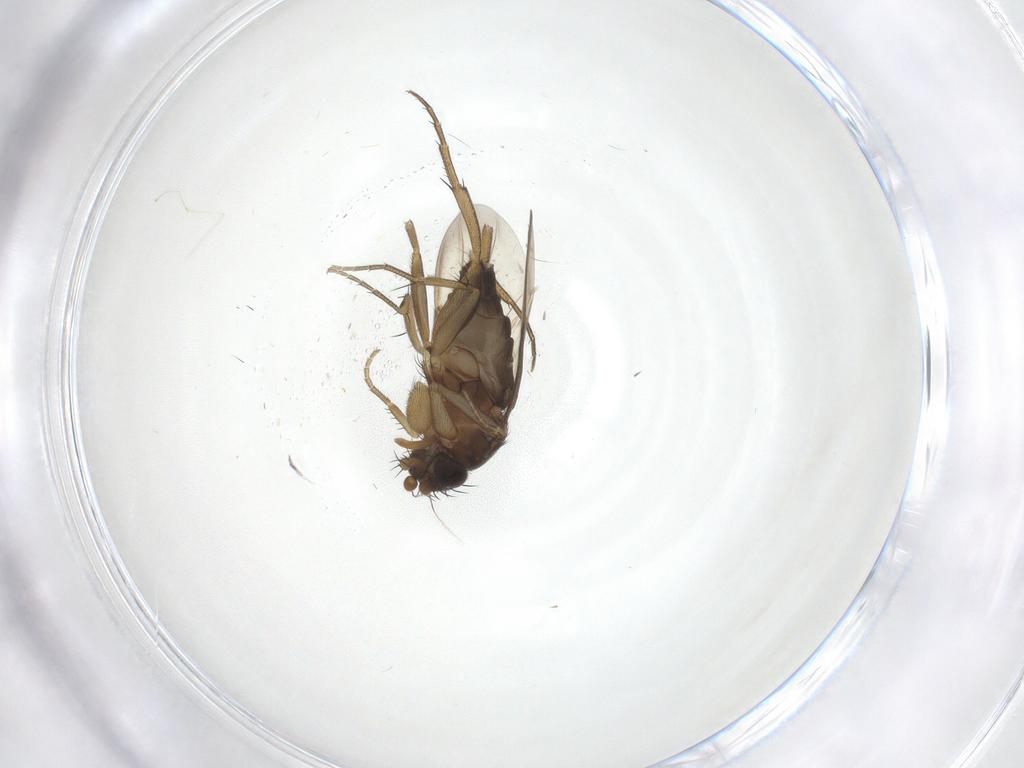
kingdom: Animalia
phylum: Arthropoda
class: Insecta
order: Diptera
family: Phoridae
